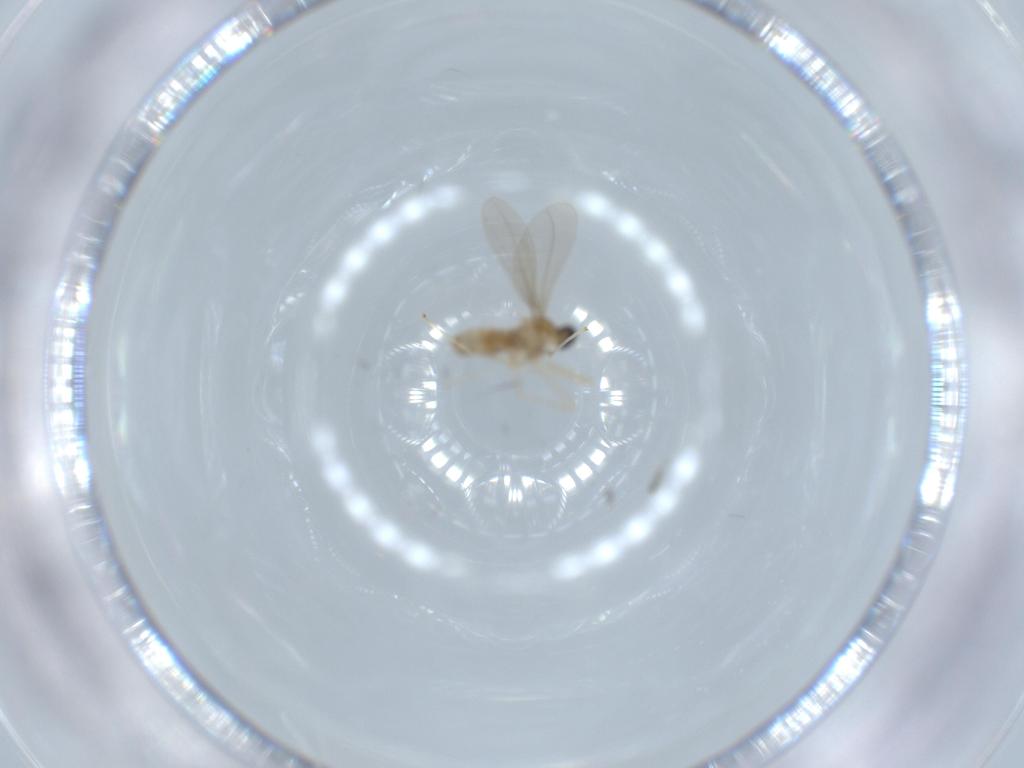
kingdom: Animalia
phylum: Arthropoda
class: Insecta
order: Diptera
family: Cecidomyiidae
